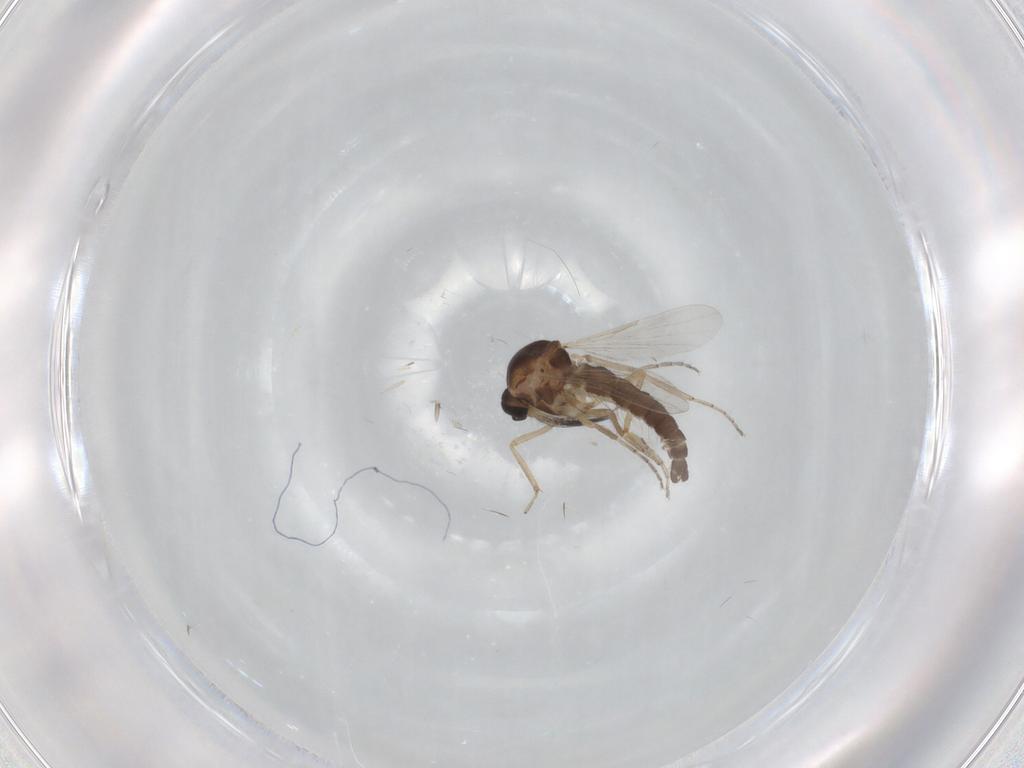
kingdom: Animalia
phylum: Arthropoda
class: Insecta
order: Diptera
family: Ceratopogonidae
